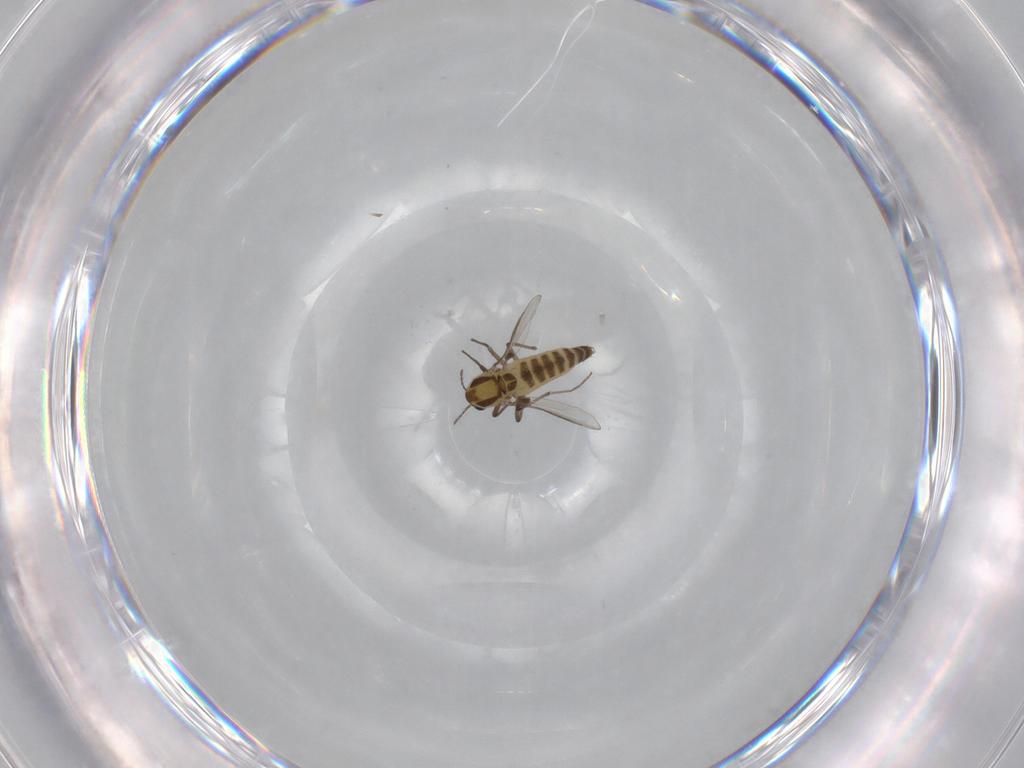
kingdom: Animalia
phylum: Arthropoda
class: Insecta
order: Diptera
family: Chironomidae
